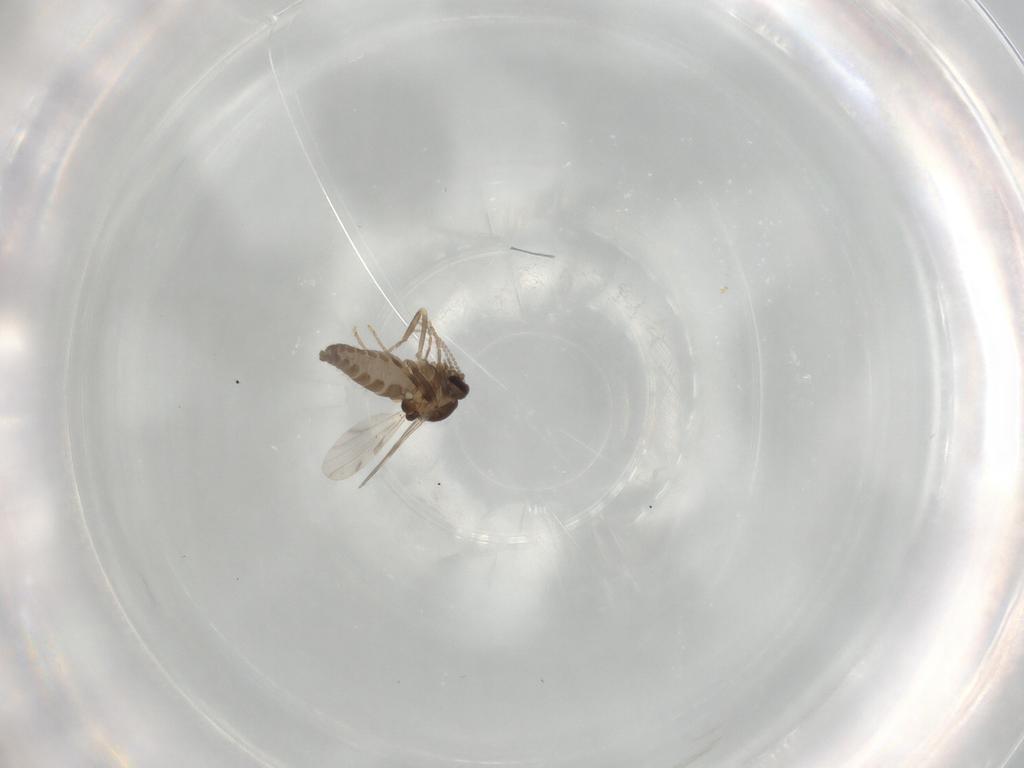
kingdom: Animalia
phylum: Arthropoda
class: Insecta
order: Diptera
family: Ceratopogonidae
